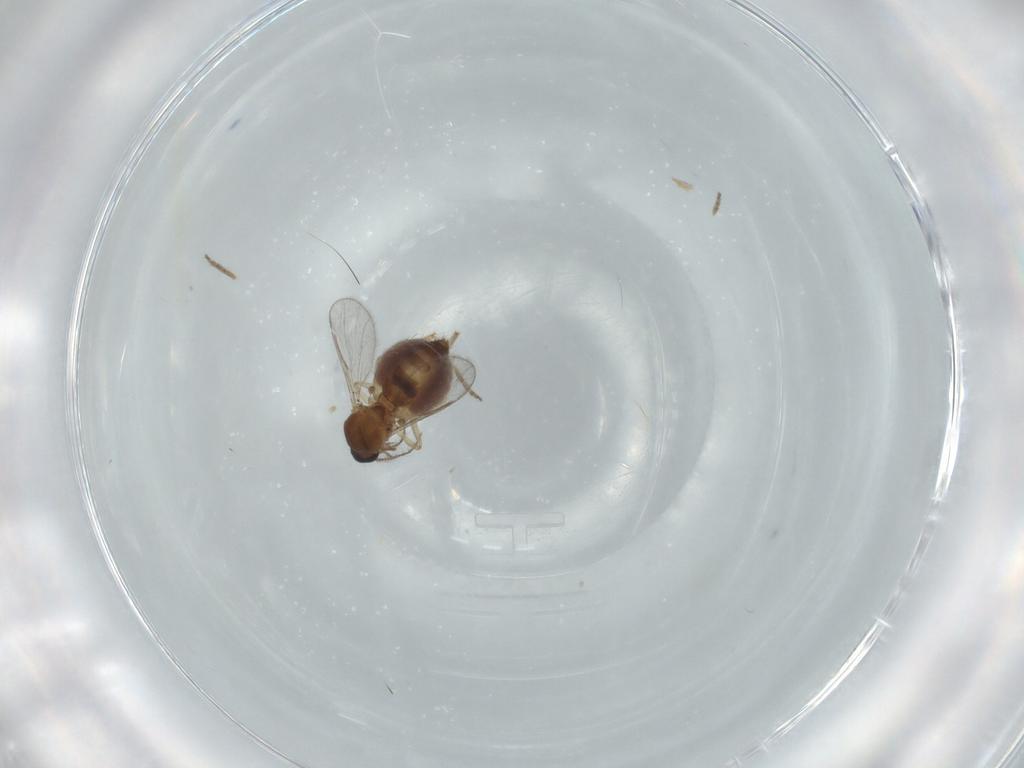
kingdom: Animalia
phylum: Arthropoda
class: Insecta
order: Diptera
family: Ceratopogonidae
